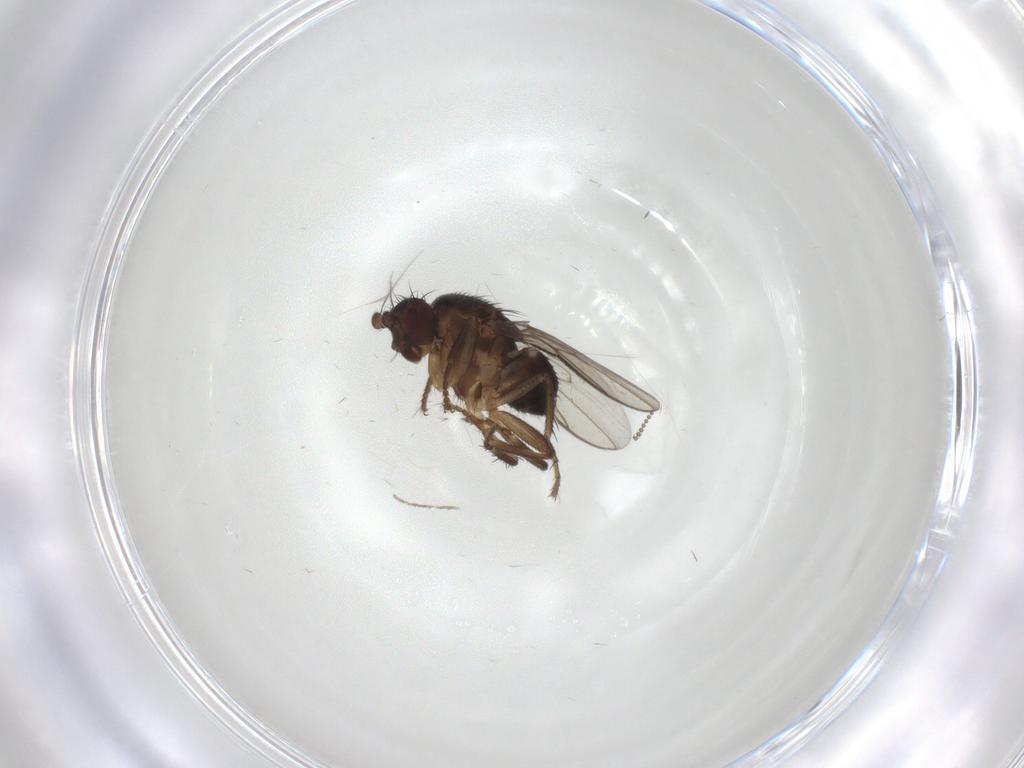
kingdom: Animalia
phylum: Arthropoda
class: Insecta
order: Diptera
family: Sphaeroceridae
